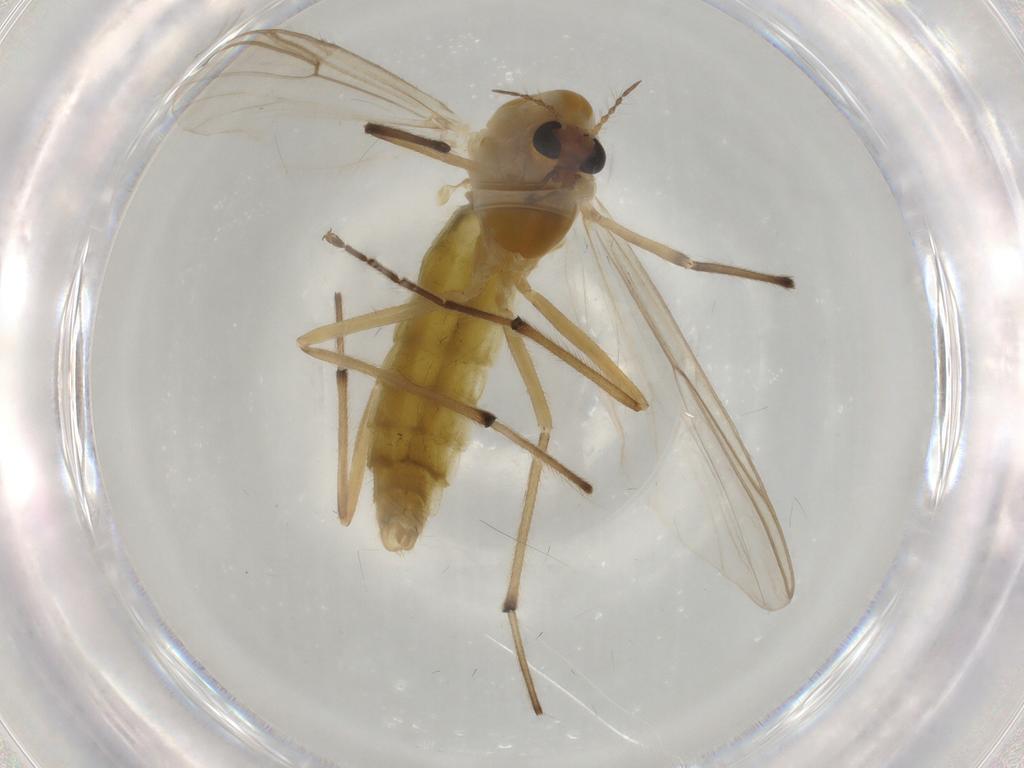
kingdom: Animalia
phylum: Arthropoda
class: Insecta
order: Diptera
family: Chironomidae
